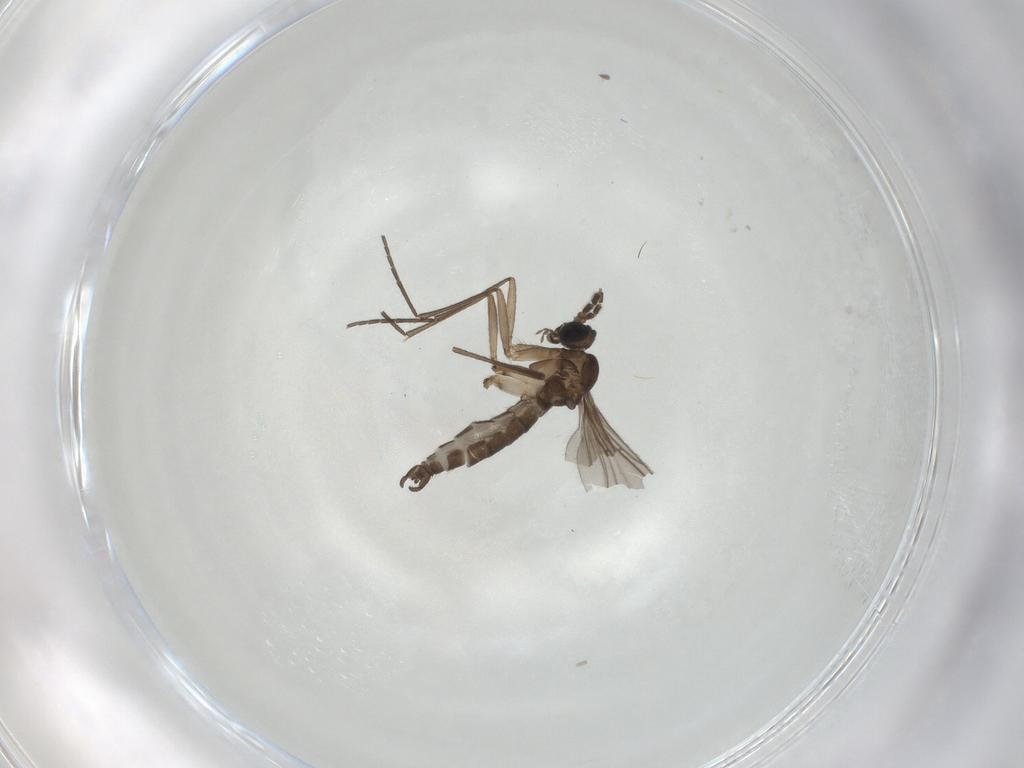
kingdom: Animalia
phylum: Arthropoda
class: Insecta
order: Diptera
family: Sciaridae
